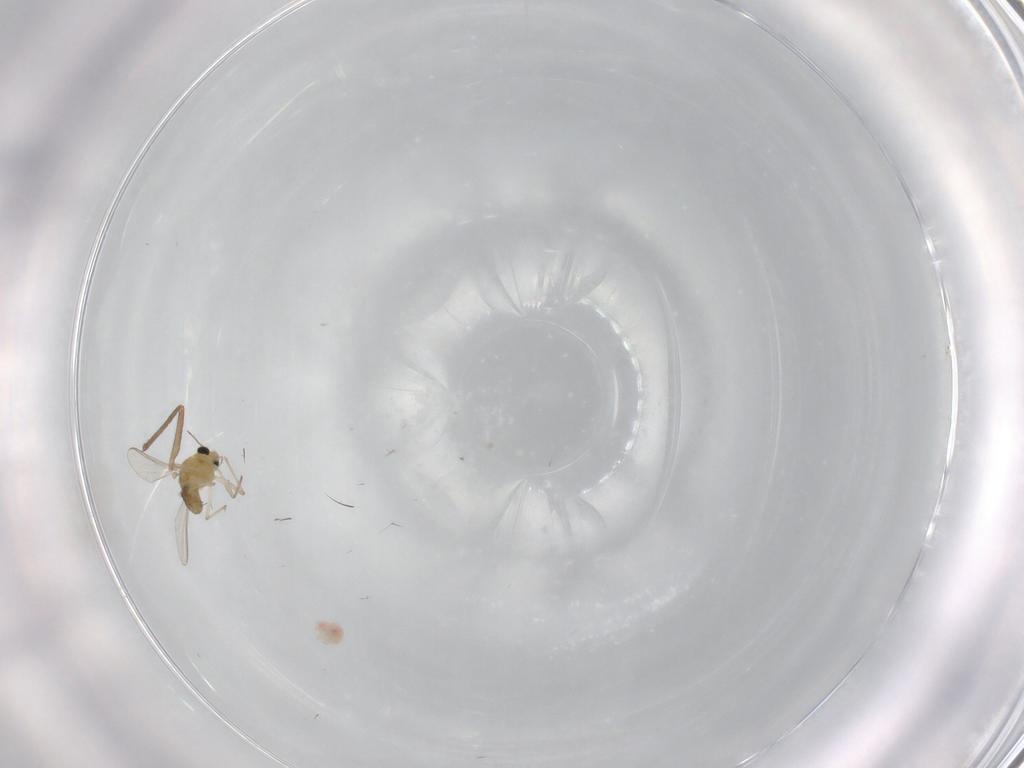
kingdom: Animalia
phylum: Arthropoda
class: Insecta
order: Diptera
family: Chironomidae
